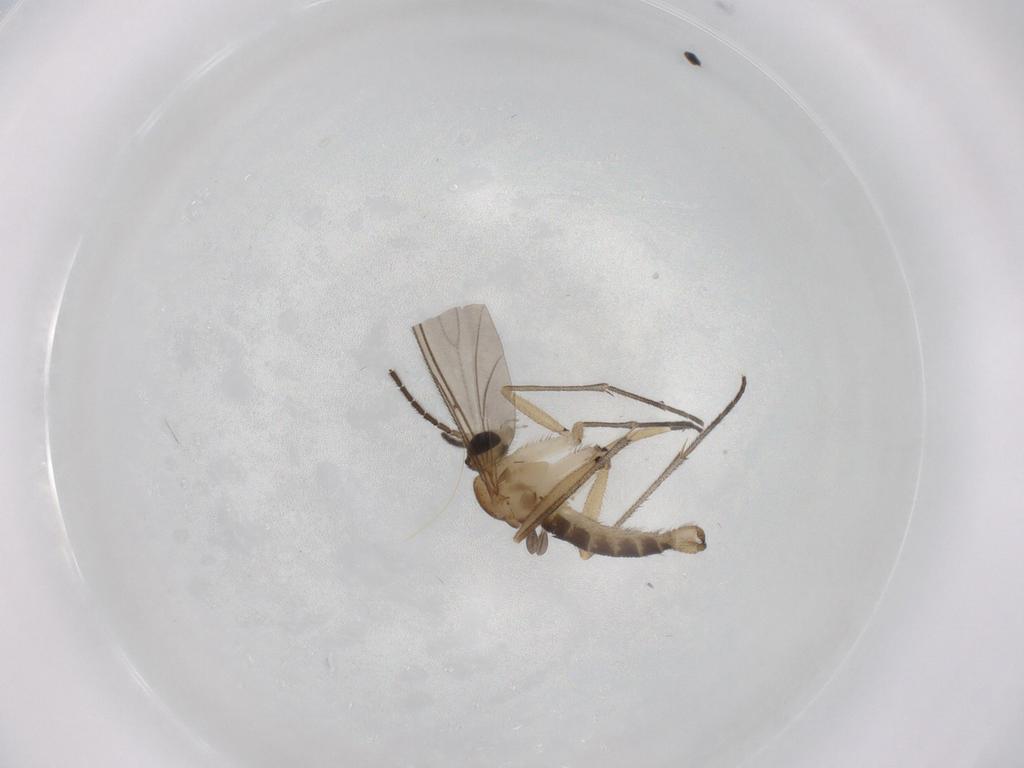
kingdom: Animalia
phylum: Arthropoda
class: Insecta
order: Diptera
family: Sciaridae
